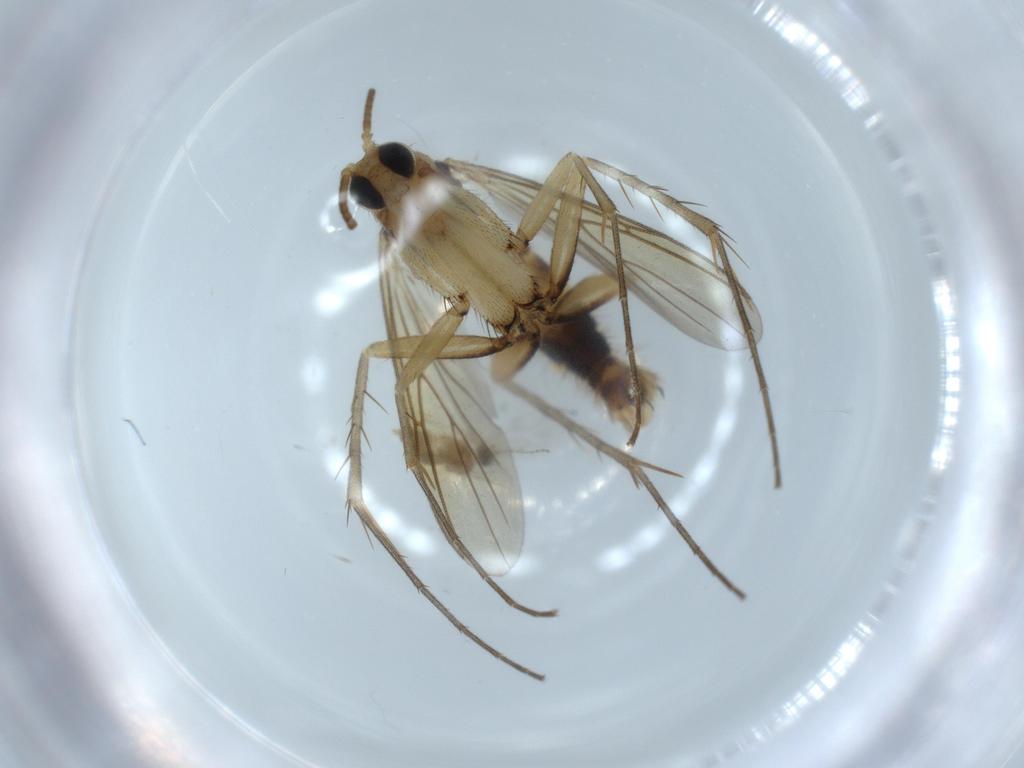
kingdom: Animalia
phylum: Arthropoda
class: Insecta
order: Diptera
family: Mycetophilidae
